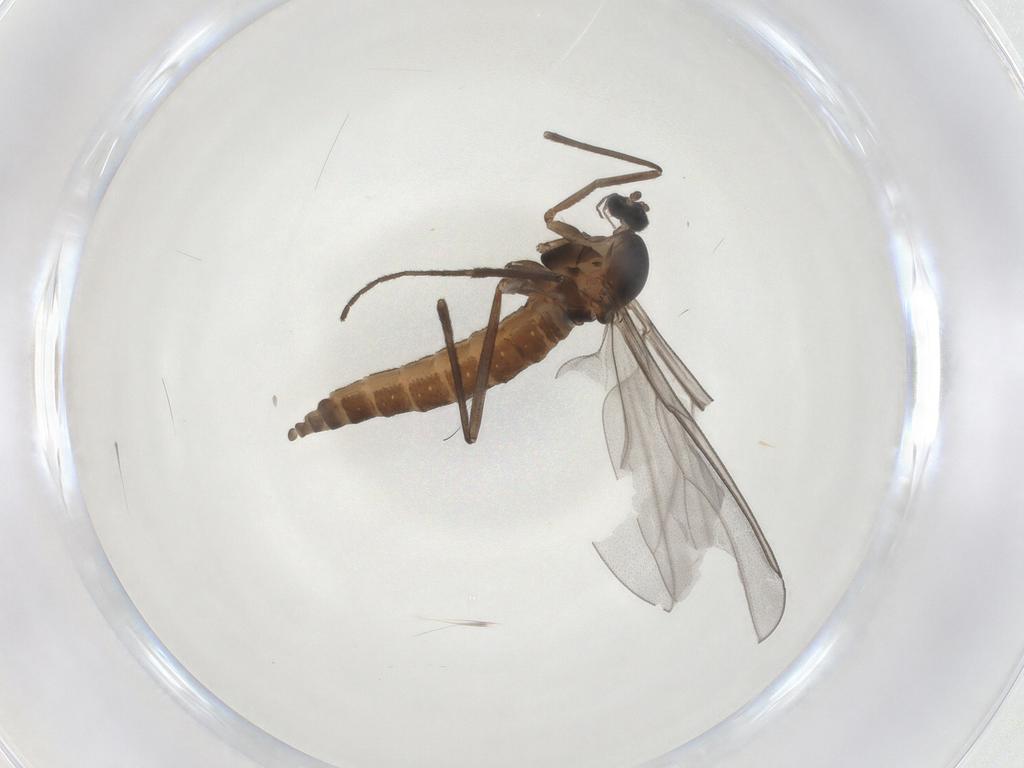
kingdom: Animalia
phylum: Arthropoda
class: Insecta
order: Diptera
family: Cecidomyiidae
